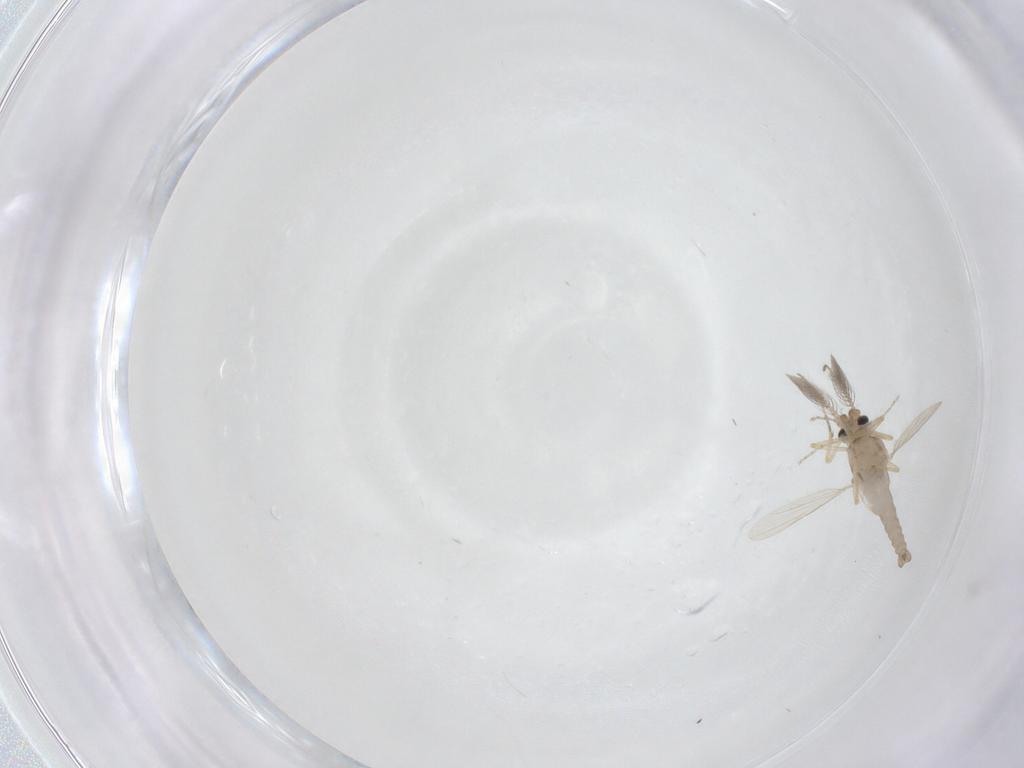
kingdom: Animalia
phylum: Arthropoda
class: Insecta
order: Diptera
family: Ceratopogonidae
